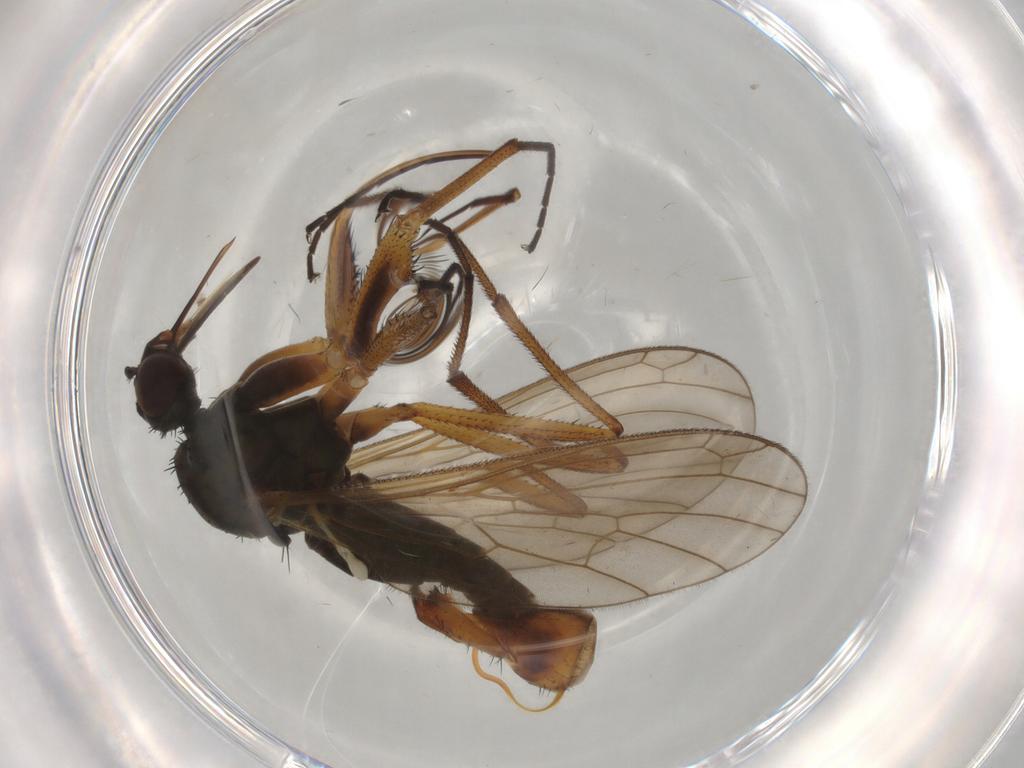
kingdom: Animalia
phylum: Arthropoda
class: Insecta
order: Diptera
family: Empididae
